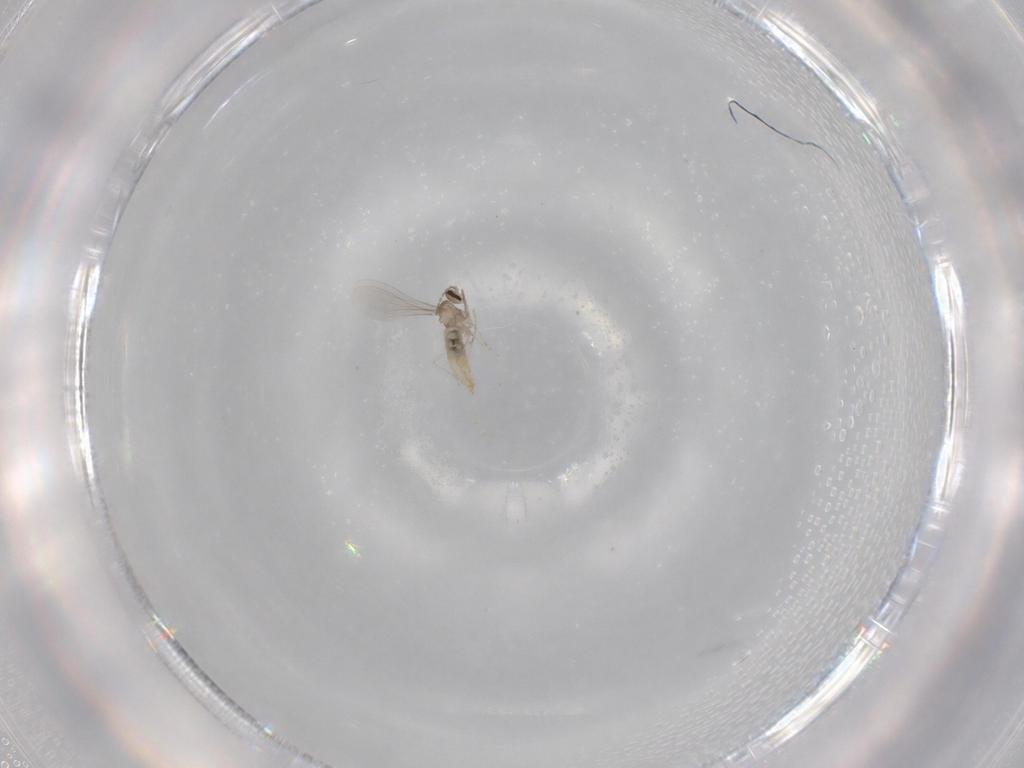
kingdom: Animalia
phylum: Arthropoda
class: Insecta
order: Diptera
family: Cecidomyiidae
